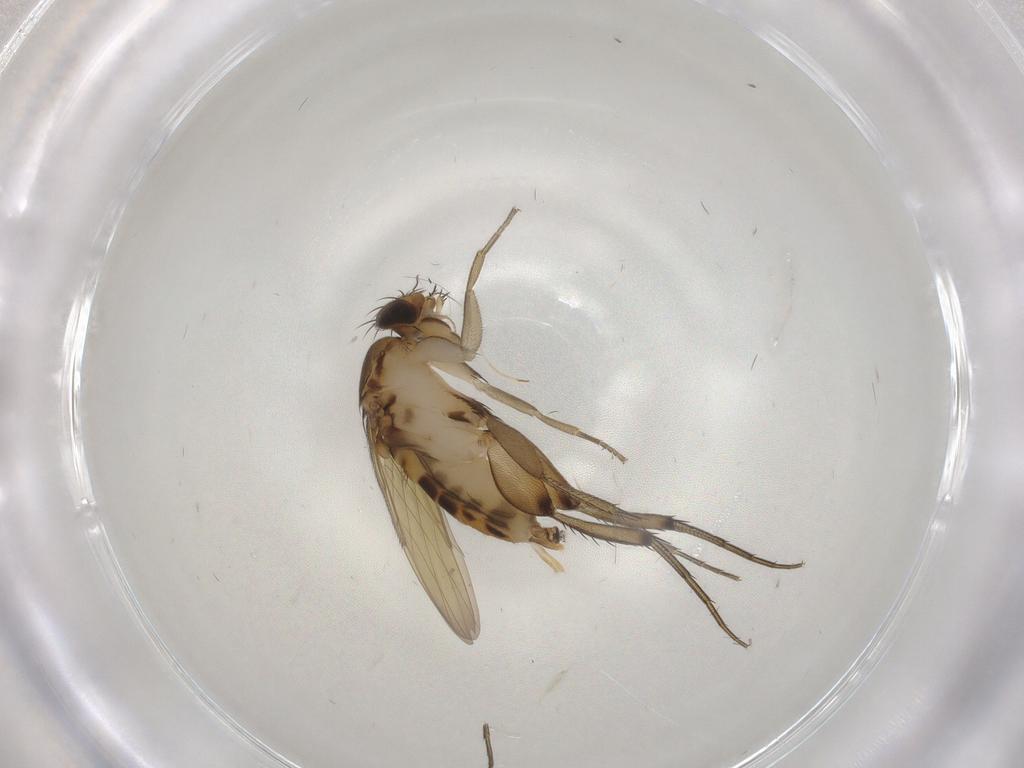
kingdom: Animalia
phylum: Arthropoda
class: Insecta
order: Diptera
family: Phoridae
